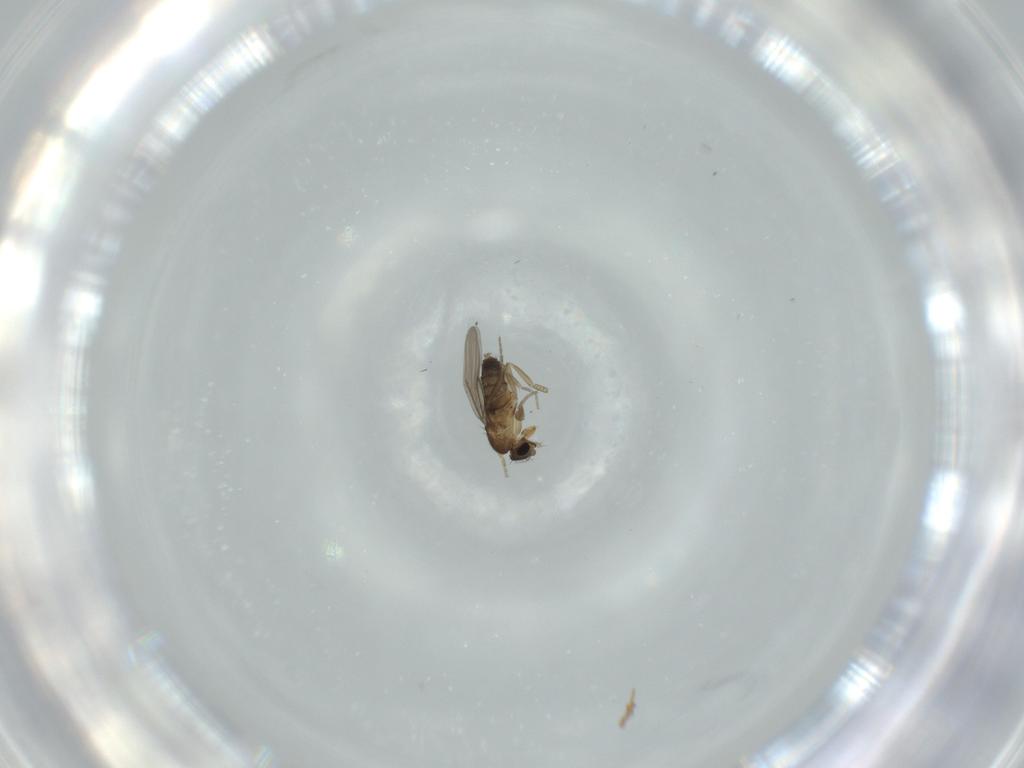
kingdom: Animalia
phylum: Arthropoda
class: Insecta
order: Diptera
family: Phoridae
